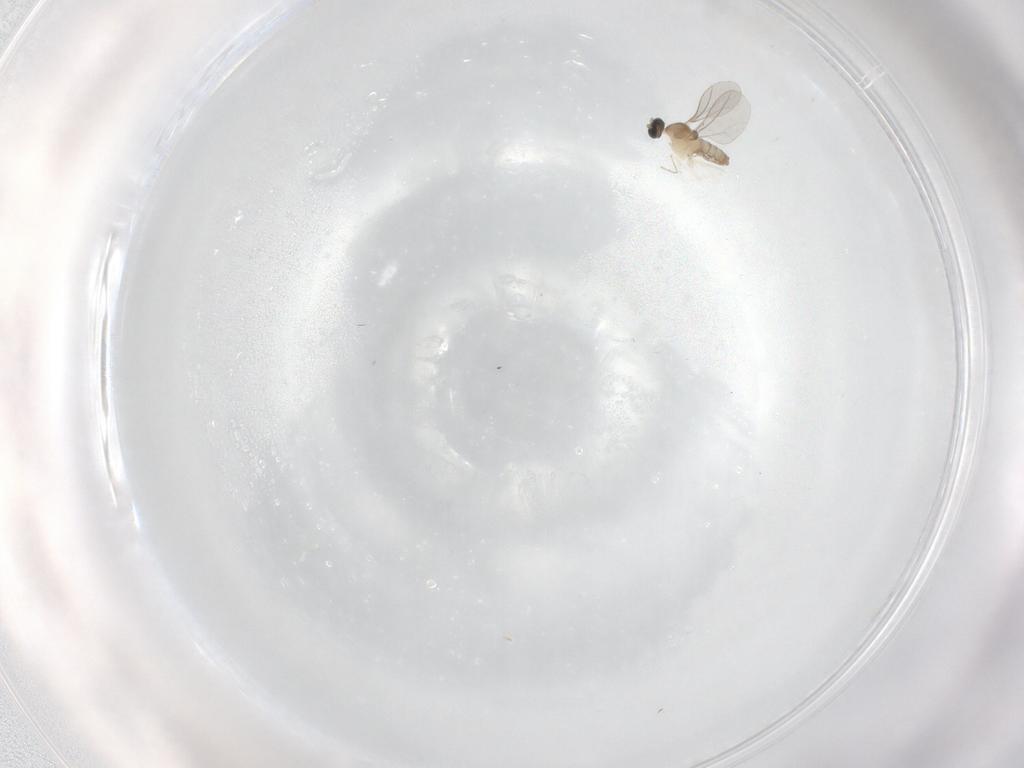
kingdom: Animalia
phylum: Arthropoda
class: Insecta
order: Diptera
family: Cecidomyiidae
